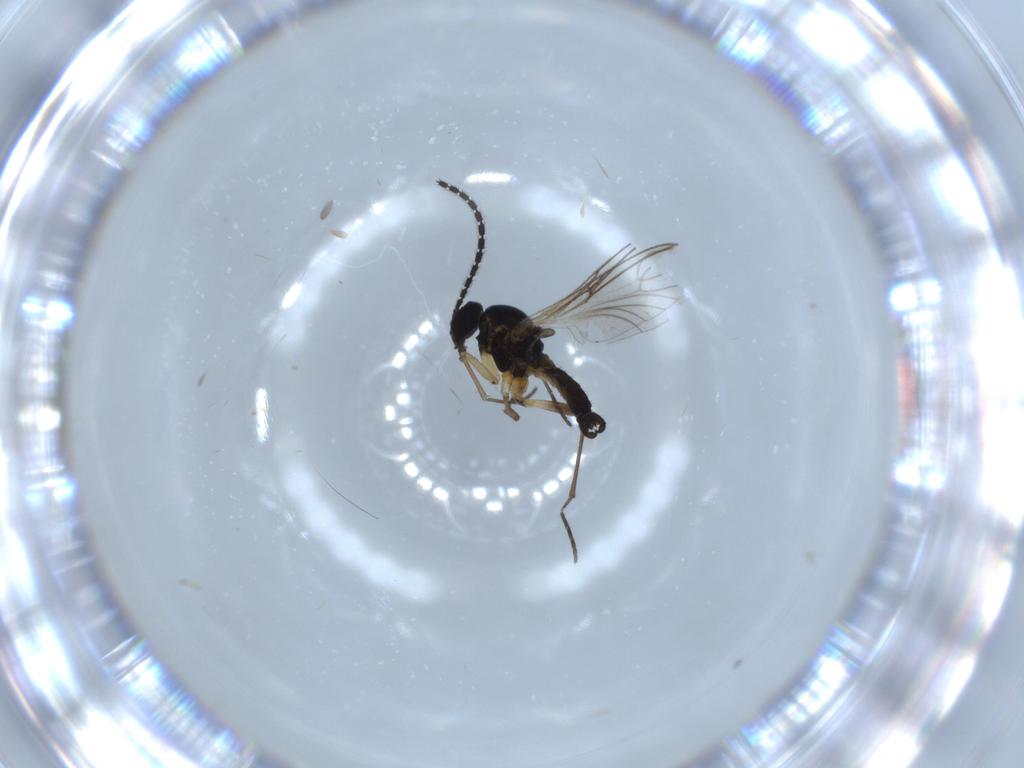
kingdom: Animalia
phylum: Arthropoda
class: Insecta
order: Diptera
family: Sciaridae
